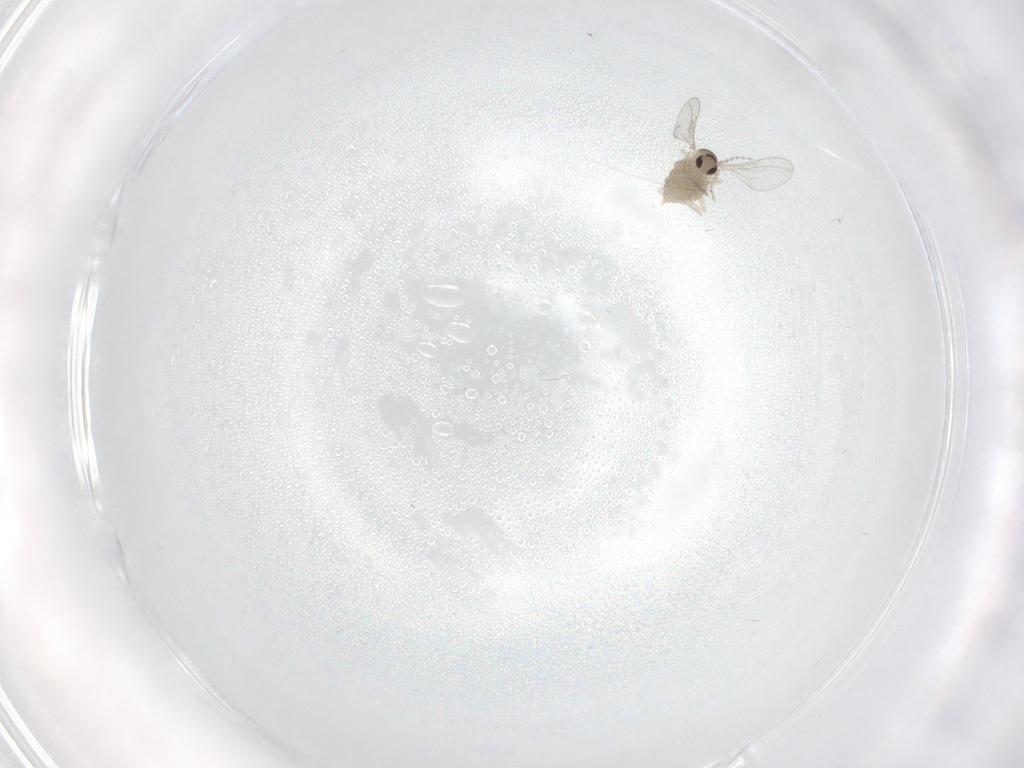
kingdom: Animalia
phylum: Arthropoda
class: Insecta
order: Diptera
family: Cecidomyiidae
